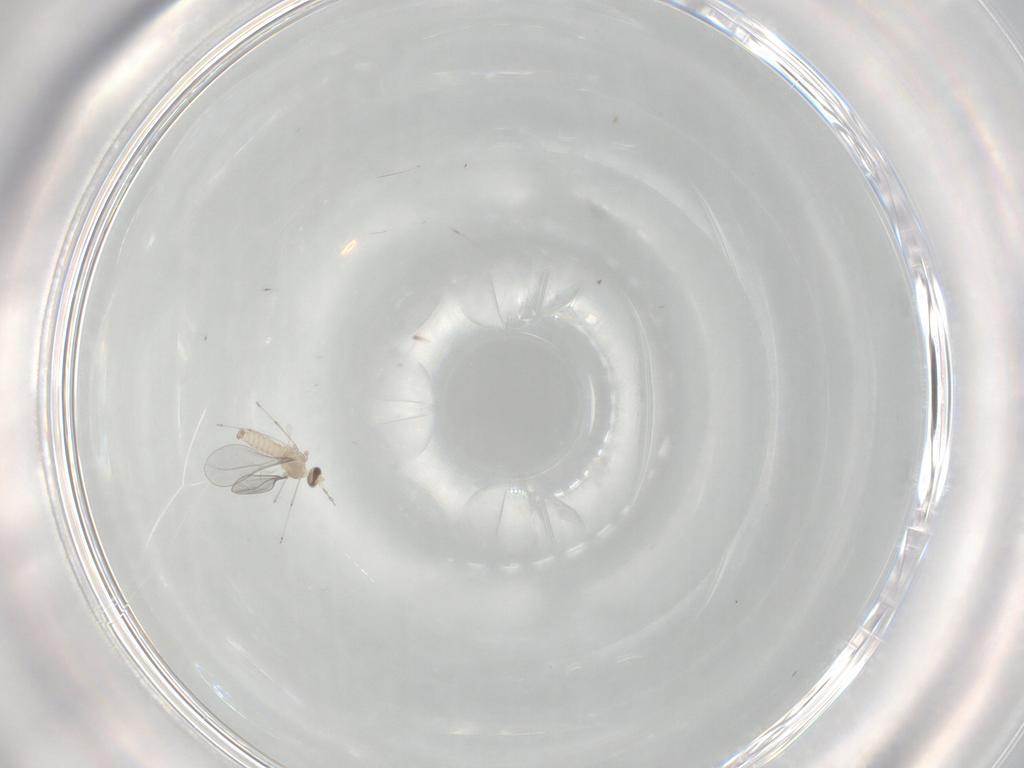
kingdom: Animalia
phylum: Arthropoda
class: Insecta
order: Diptera
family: Cecidomyiidae
